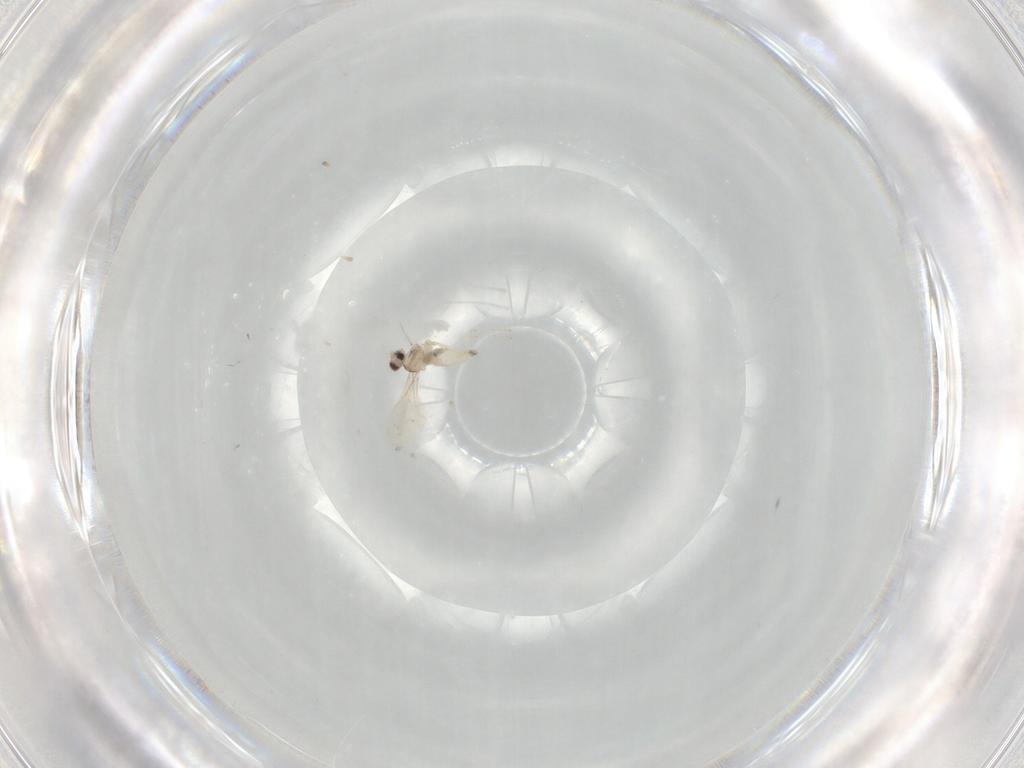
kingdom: Animalia
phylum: Arthropoda
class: Insecta
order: Diptera
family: Cecidomyiidae
